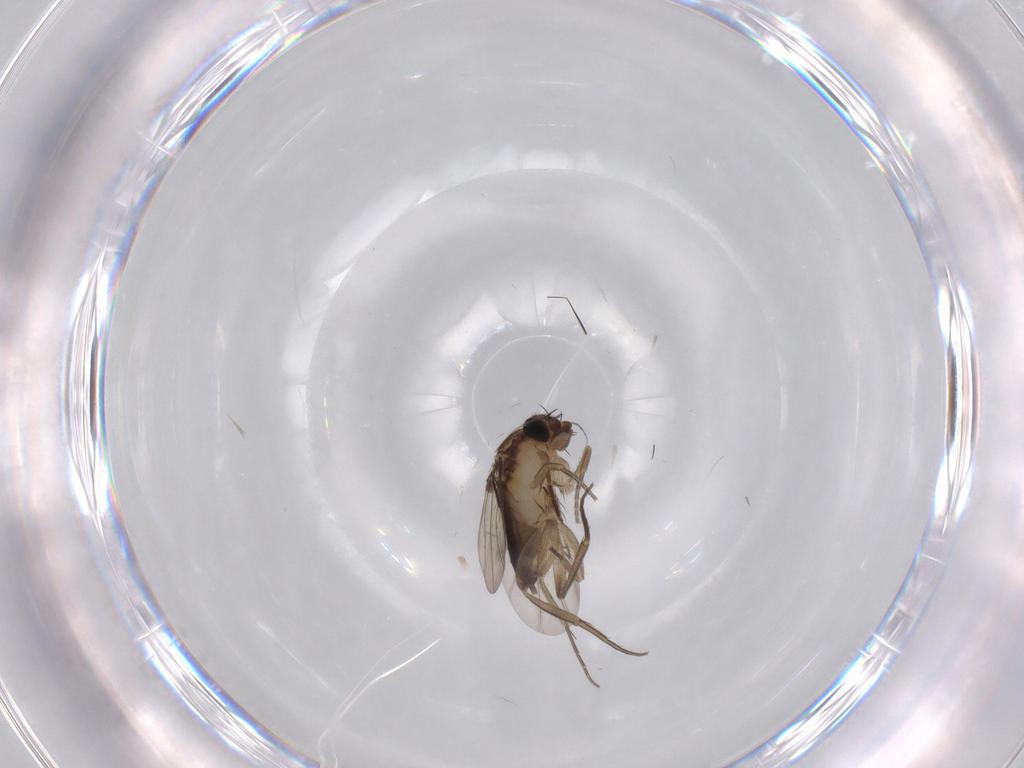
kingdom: Animalia
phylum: Arthropoda
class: Insecta
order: Diptera
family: Phoridae
